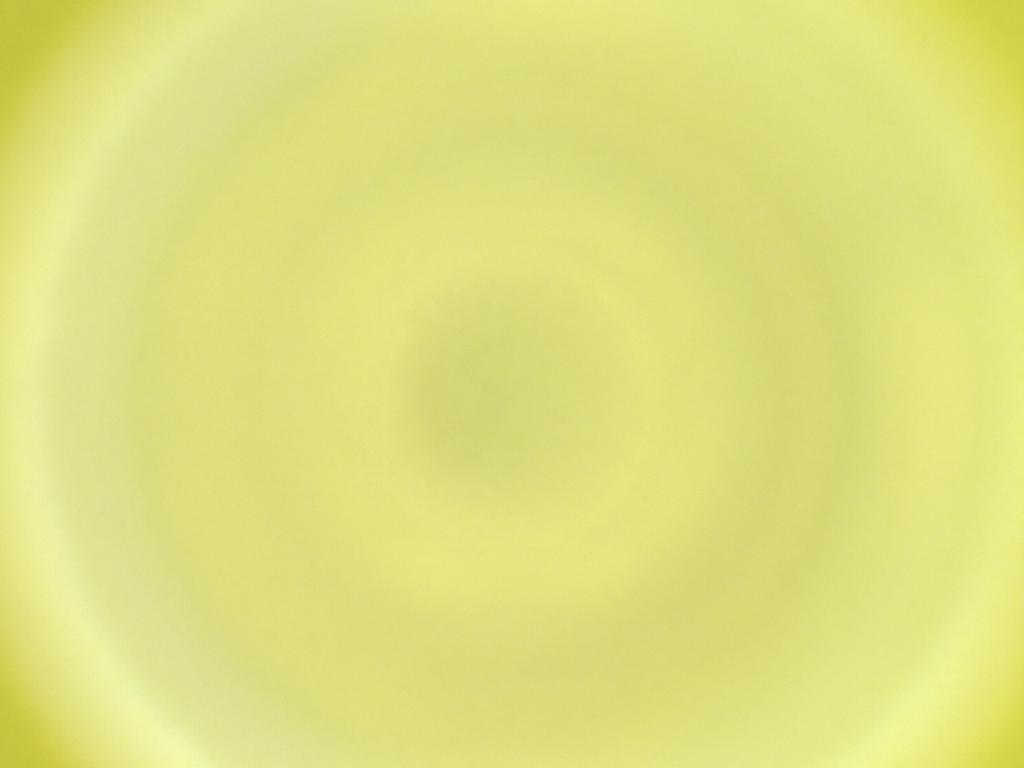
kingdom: Animalia
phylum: Arthropoda
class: Insecta
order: Diptera
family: Cecidomyiidae
